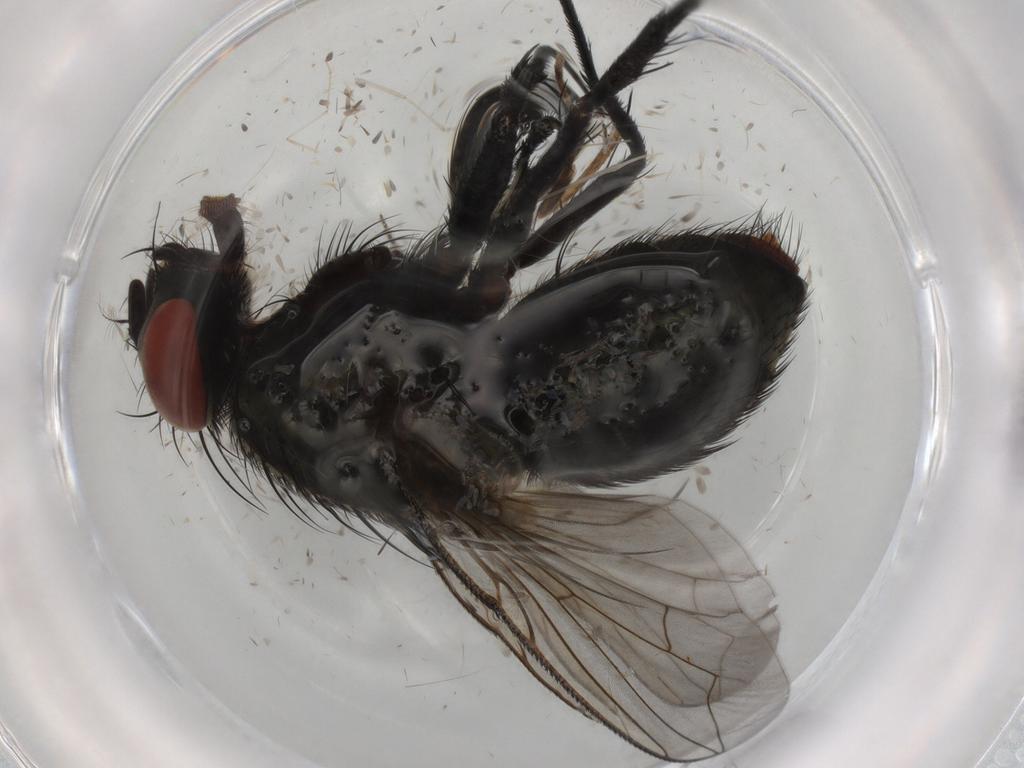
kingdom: Animalia
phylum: Arthropoda
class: Insecta
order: Diptera
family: Sarcophagidae
